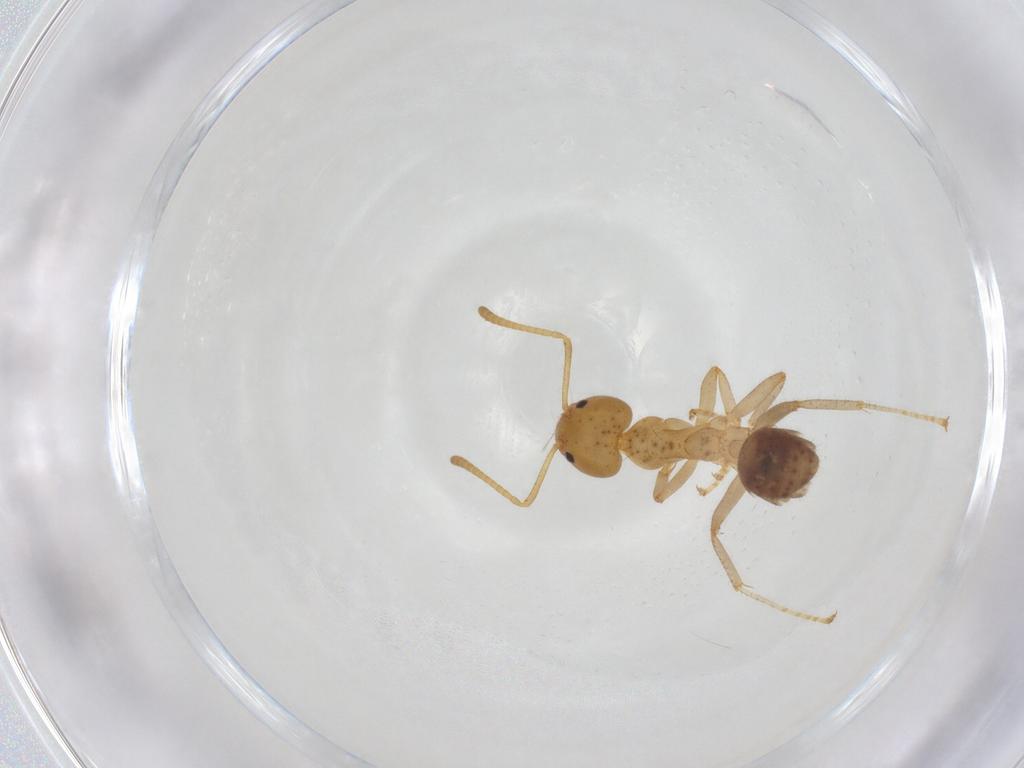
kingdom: Animalia
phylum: Arthropoda
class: Insecta
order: Hymenoptera
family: Formicidae
